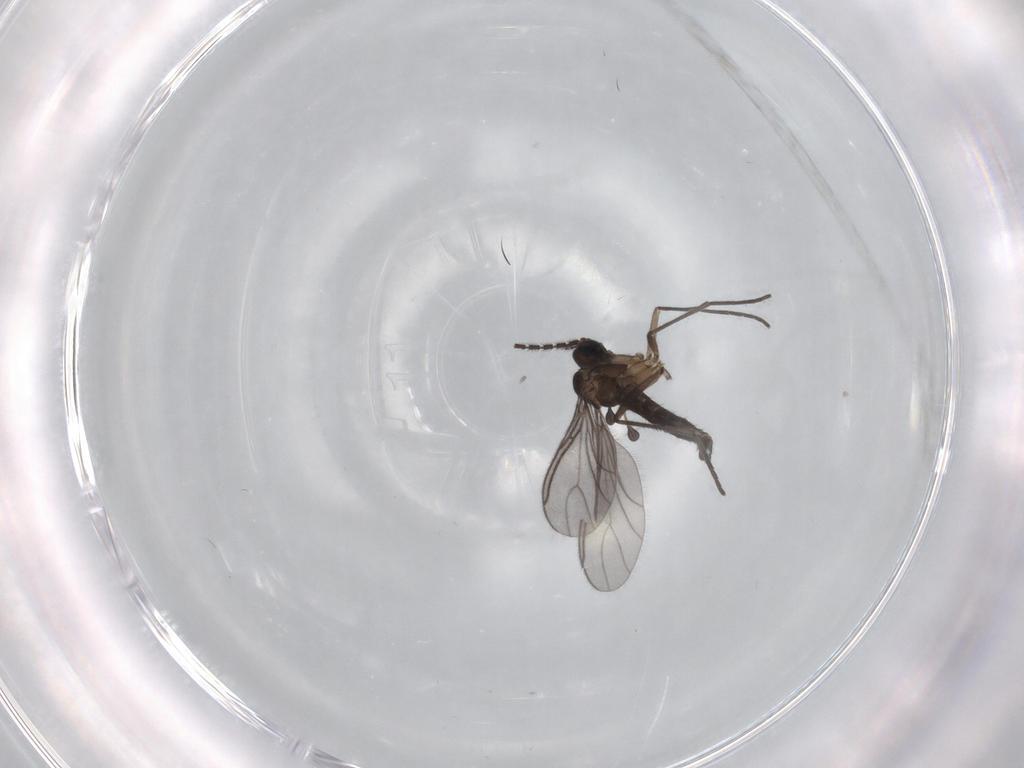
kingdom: Animalia
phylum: Arthropoda
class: Insecta
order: Diptera
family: Sciaridae
